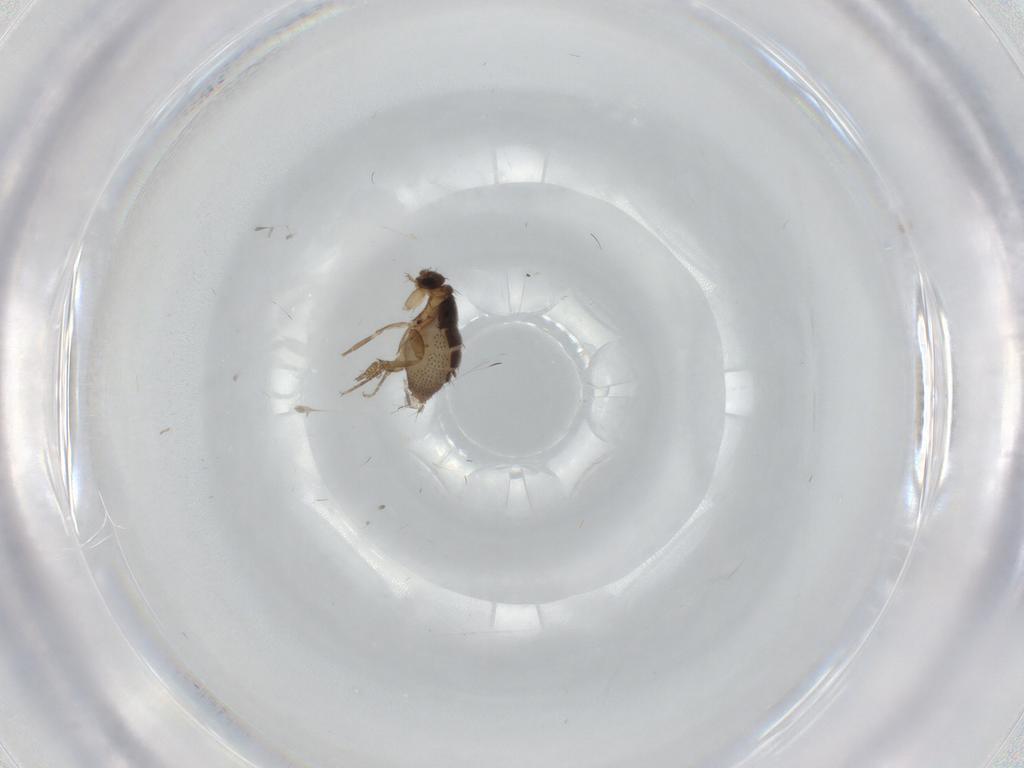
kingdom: Animalia
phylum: Arthropoda
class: Insecta
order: Diptera
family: Phoridae
